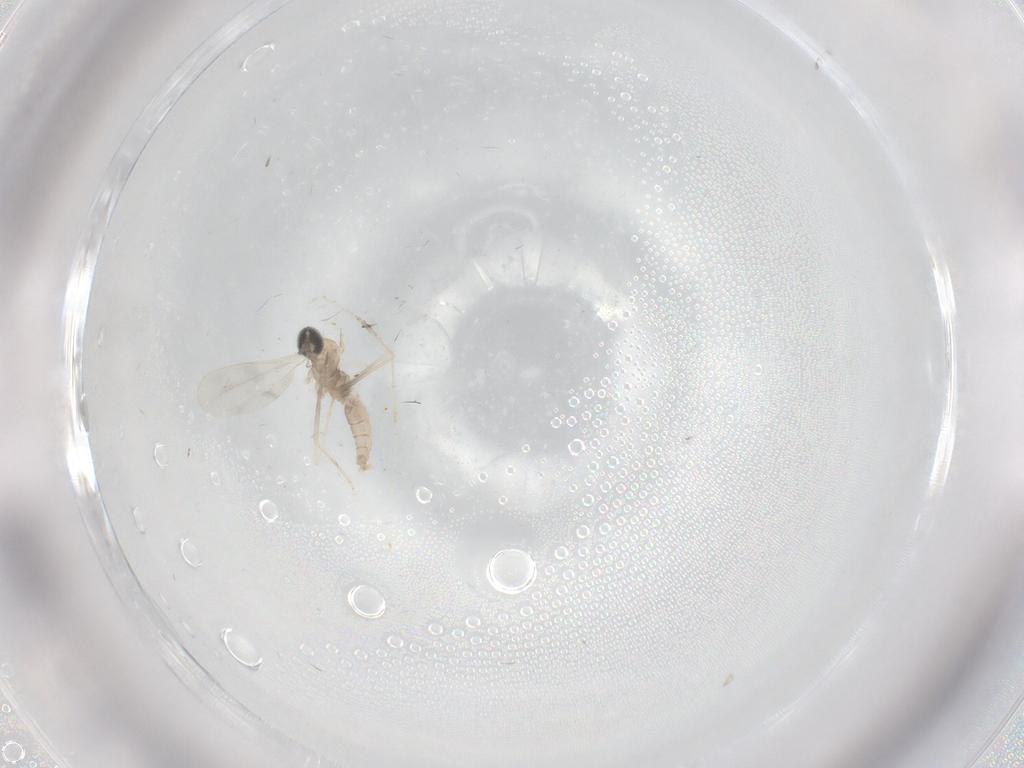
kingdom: Animalia
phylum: Arthropoda
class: Insecta
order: Diptera
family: Cecidomyiidae
